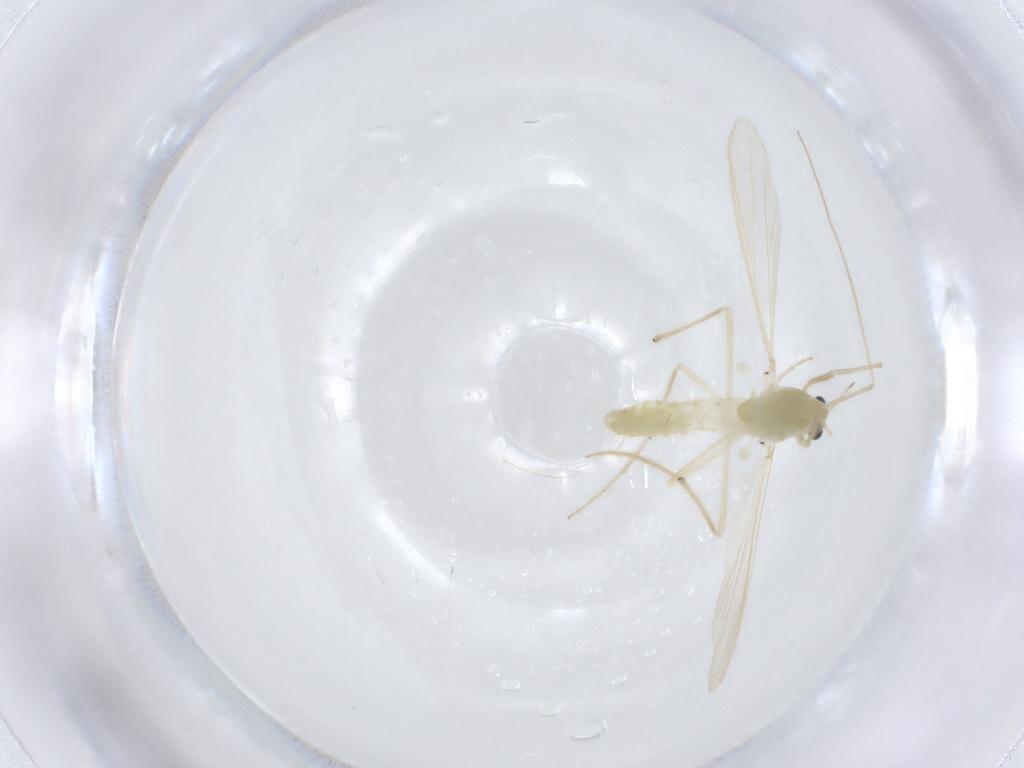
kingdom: Animalia
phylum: Arthropoda
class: Insecta
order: Diptera
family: Chironomidae
